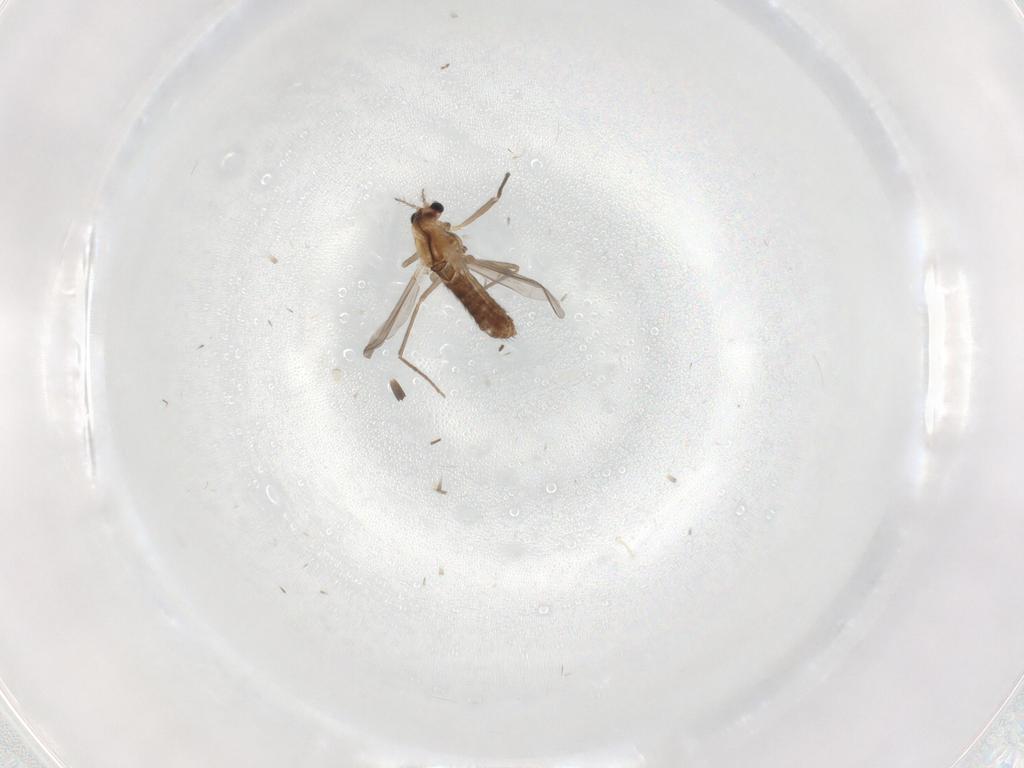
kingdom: Animalia
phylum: Arthropoda
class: Insecta
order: Diptera
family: Chironomidae
